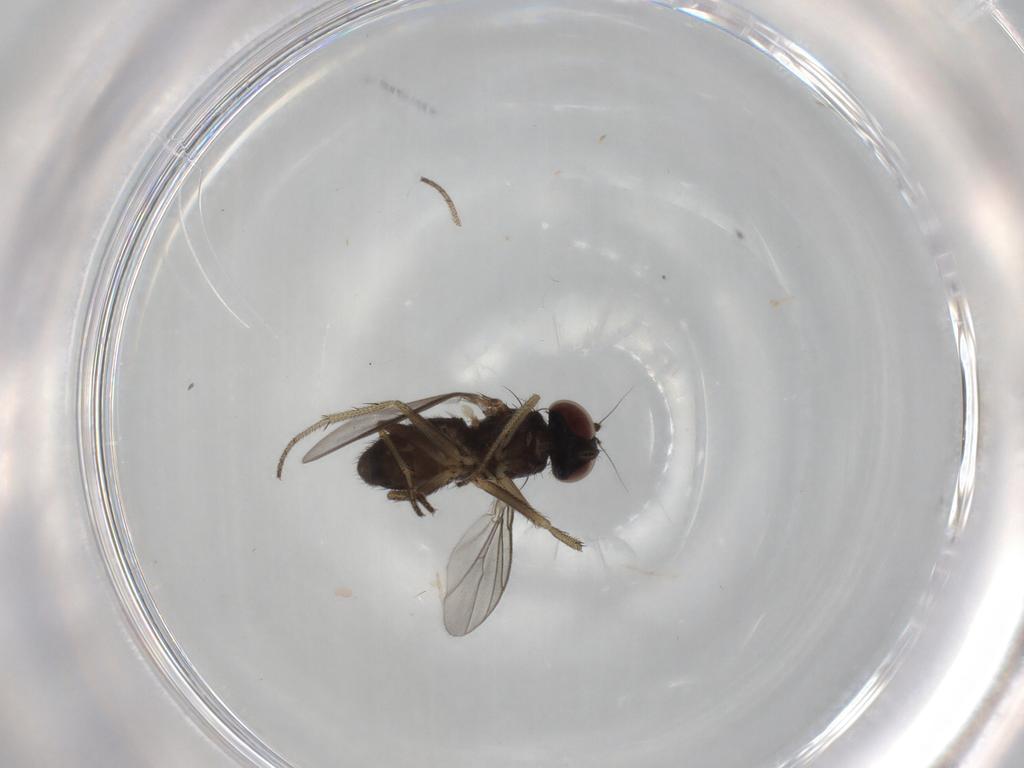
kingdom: Animalia
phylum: Arthropoda
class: Insecta
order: Diptera
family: Dolichopodidae
